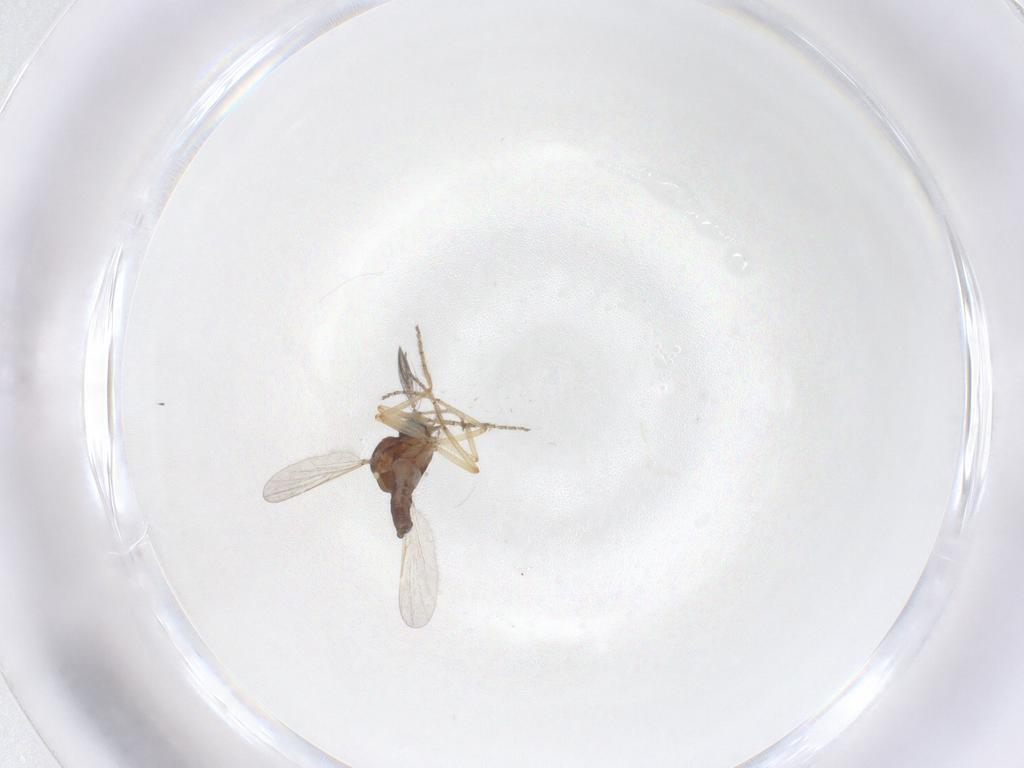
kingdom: Animalia
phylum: Arthropoda
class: Insecta
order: Diptera
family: Ceratopogonidae
